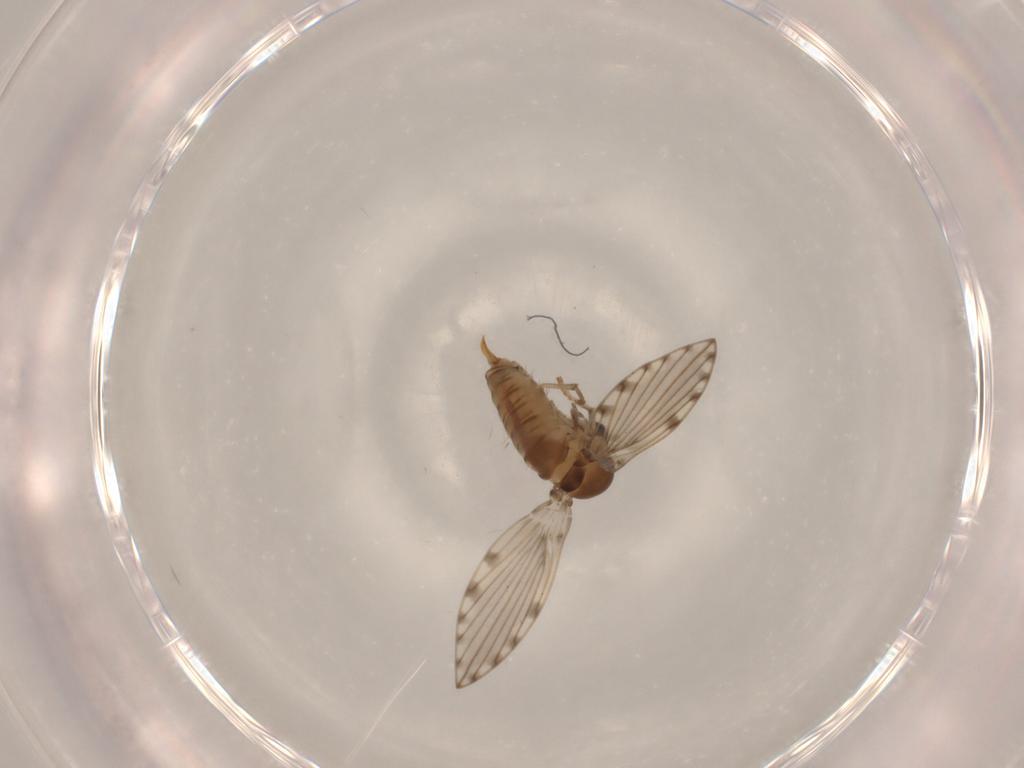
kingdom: Animalia
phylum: Arthropoda
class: Insecta
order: Diptera
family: Psychodidae
